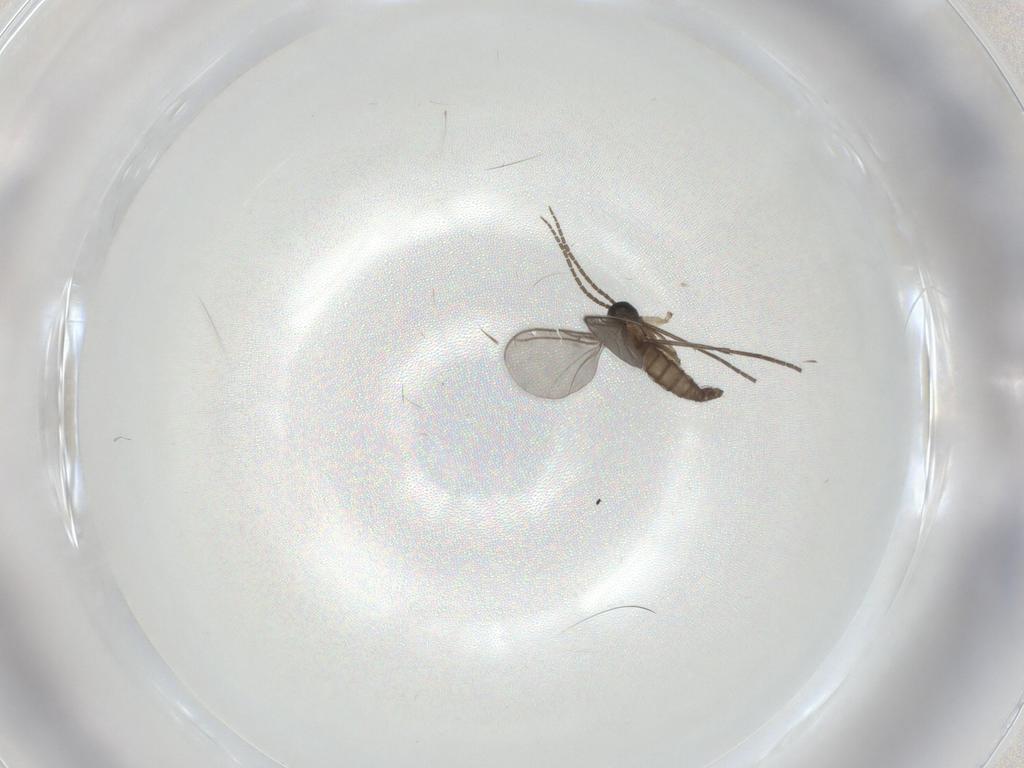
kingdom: Animalia
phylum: Arthropoda
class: Insecta
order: Diptera
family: Sciaridae
